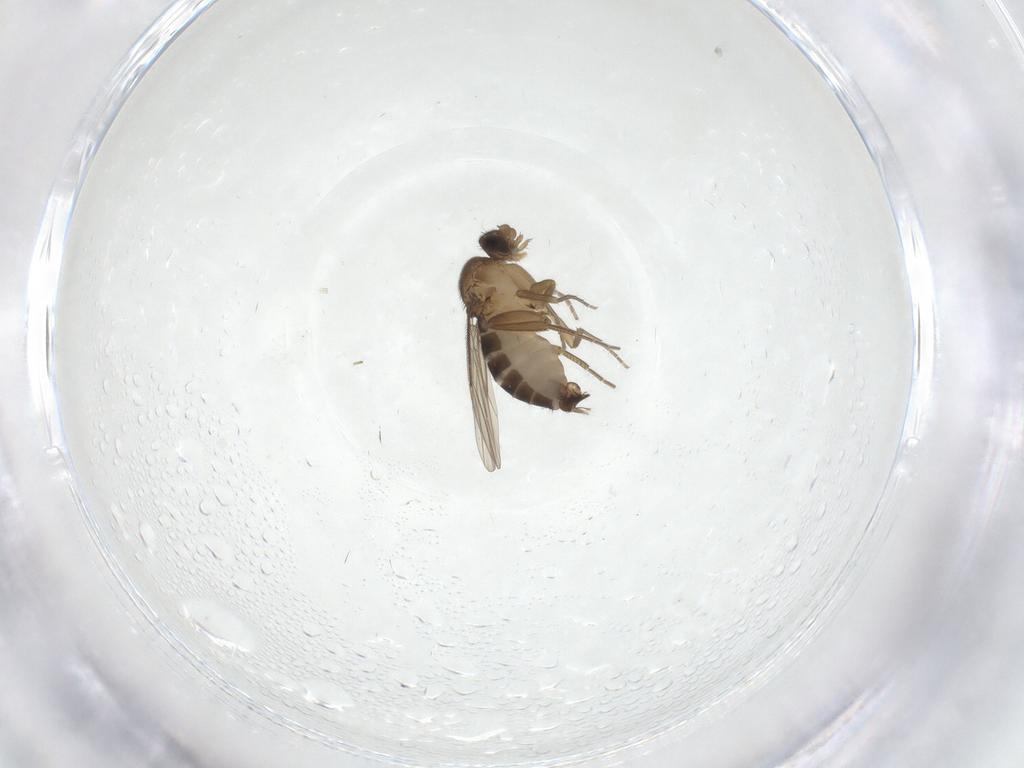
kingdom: Animalia
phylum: Arthropoda
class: Insecta
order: Diptera
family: Phoridae
